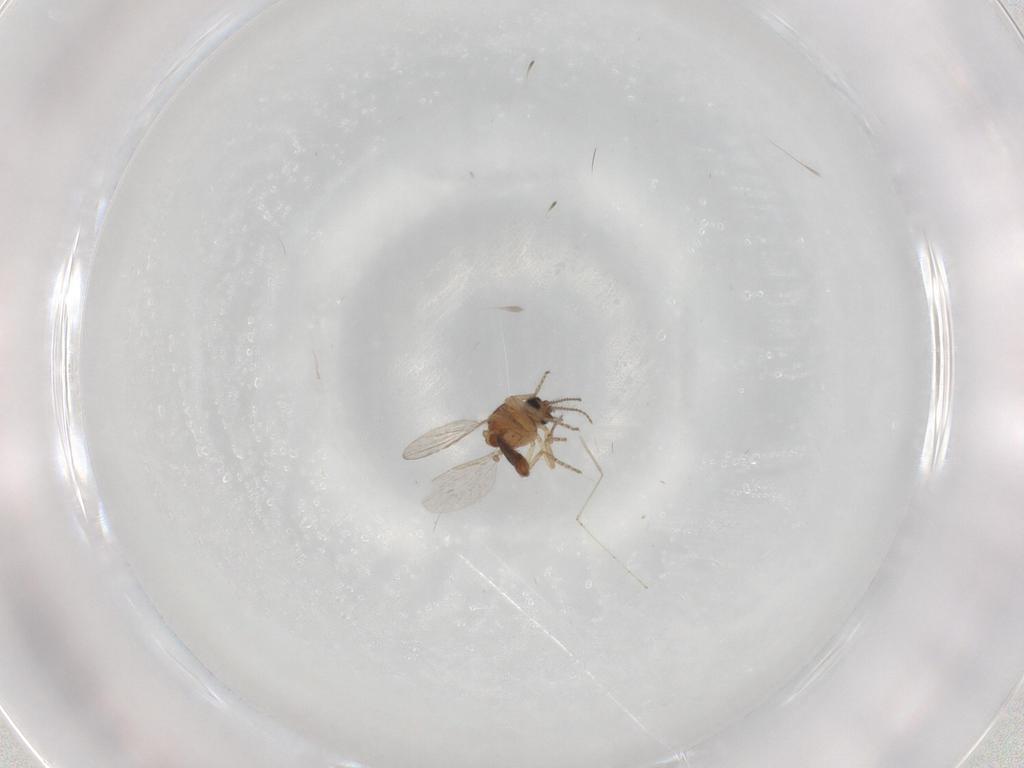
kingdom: Animalia
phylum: Arthropoda
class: Insecta
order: Diptera
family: Ceratopogonidae
